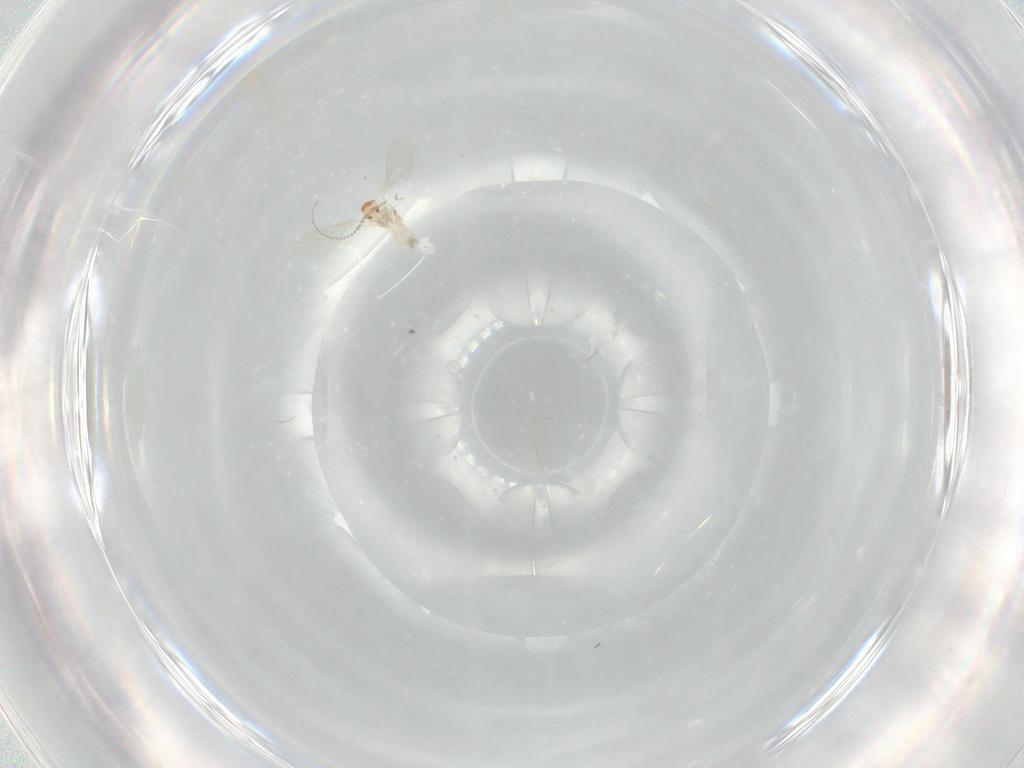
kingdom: Animalia
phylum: Arthropoda
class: Insecta
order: Diptera
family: Cecidomyiidae
